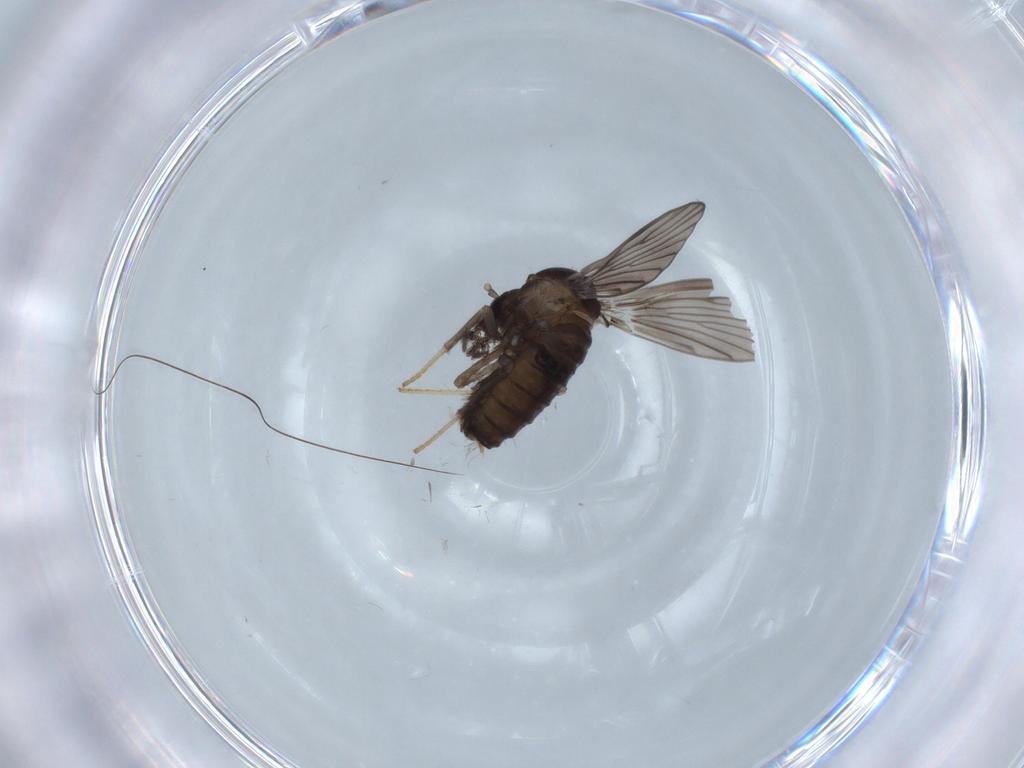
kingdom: Animalia
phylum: Arthropoda
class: Insecta
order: Diptera
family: Psychodidae
